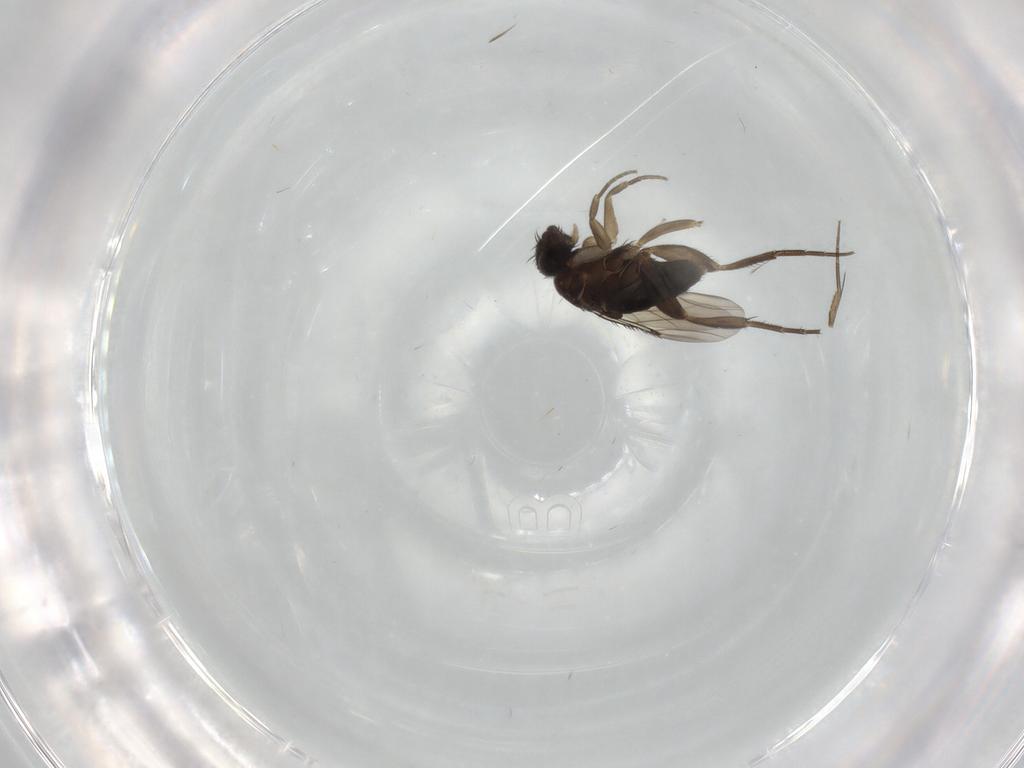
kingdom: Animalia
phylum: Arthropoda
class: Insecta
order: Diptera
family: Phoridae
